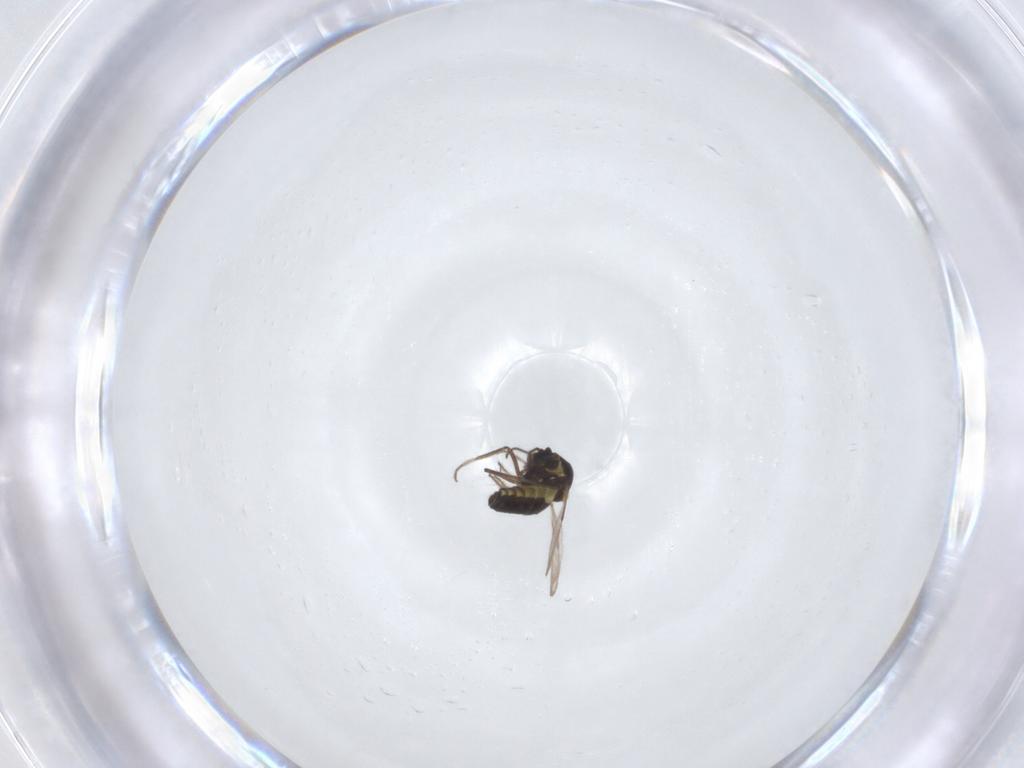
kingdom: Animalia
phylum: Arthropoda
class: Insecta
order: Diptera
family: Ceratopogonidae
